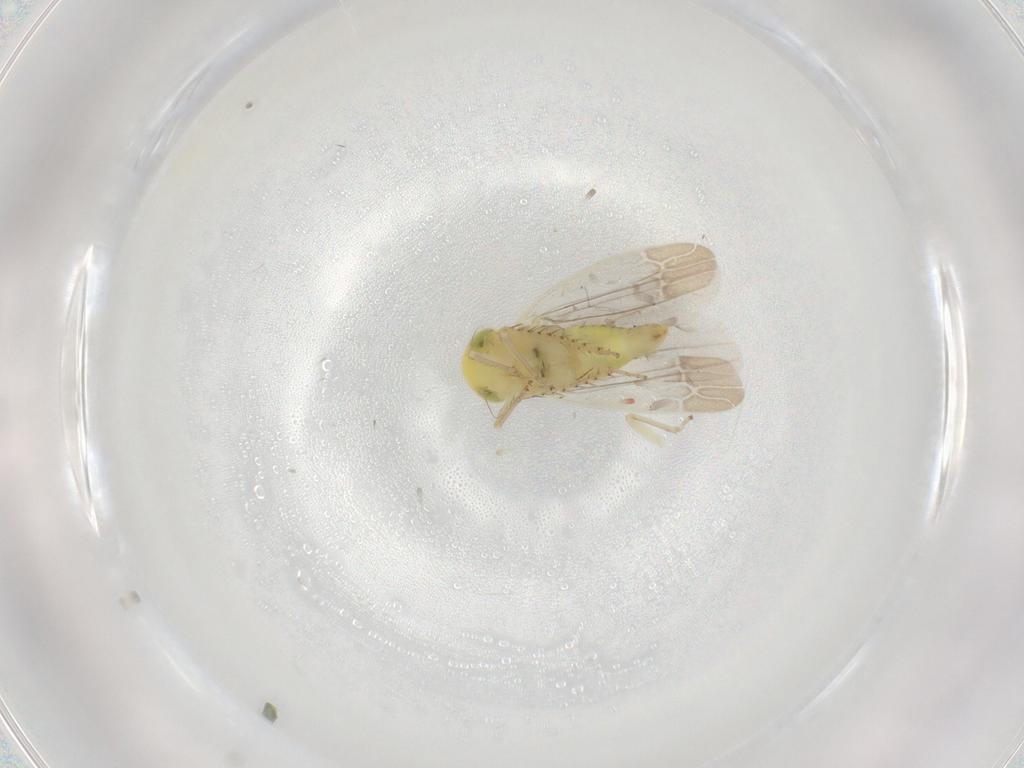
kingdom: Animalia
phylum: Arthropoda
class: Insecta
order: Hemiptera
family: Cicadellidae
